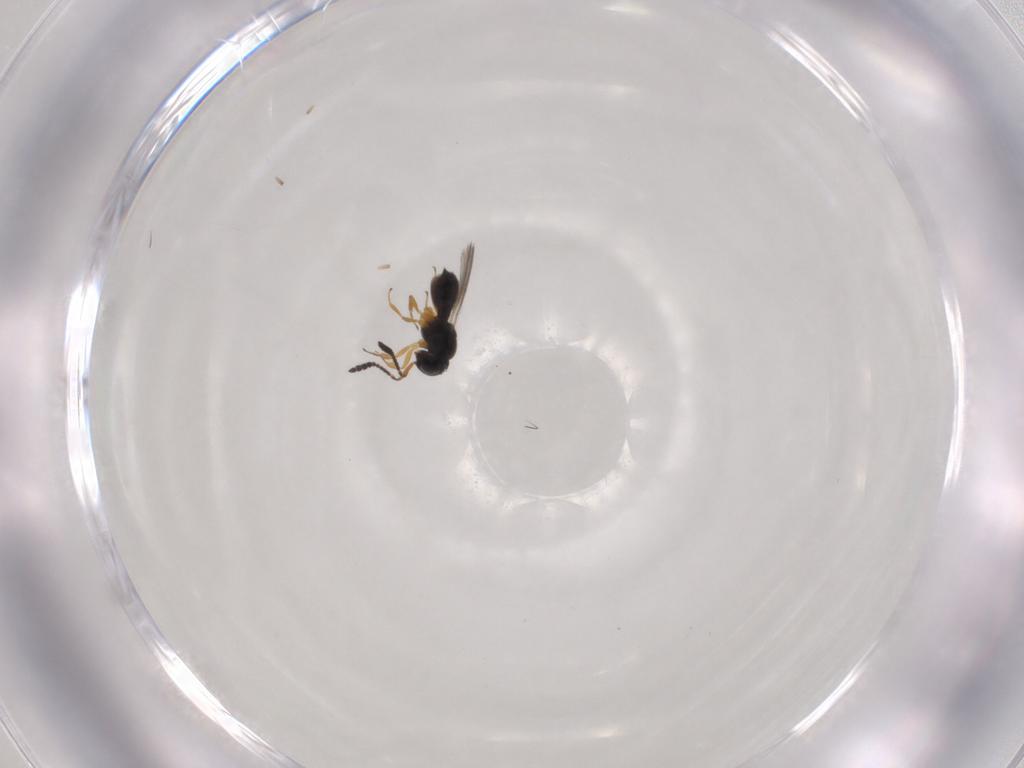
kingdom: Animalia
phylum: Arthropoda
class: Insecta
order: Hymenoptera
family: Scelionidae
